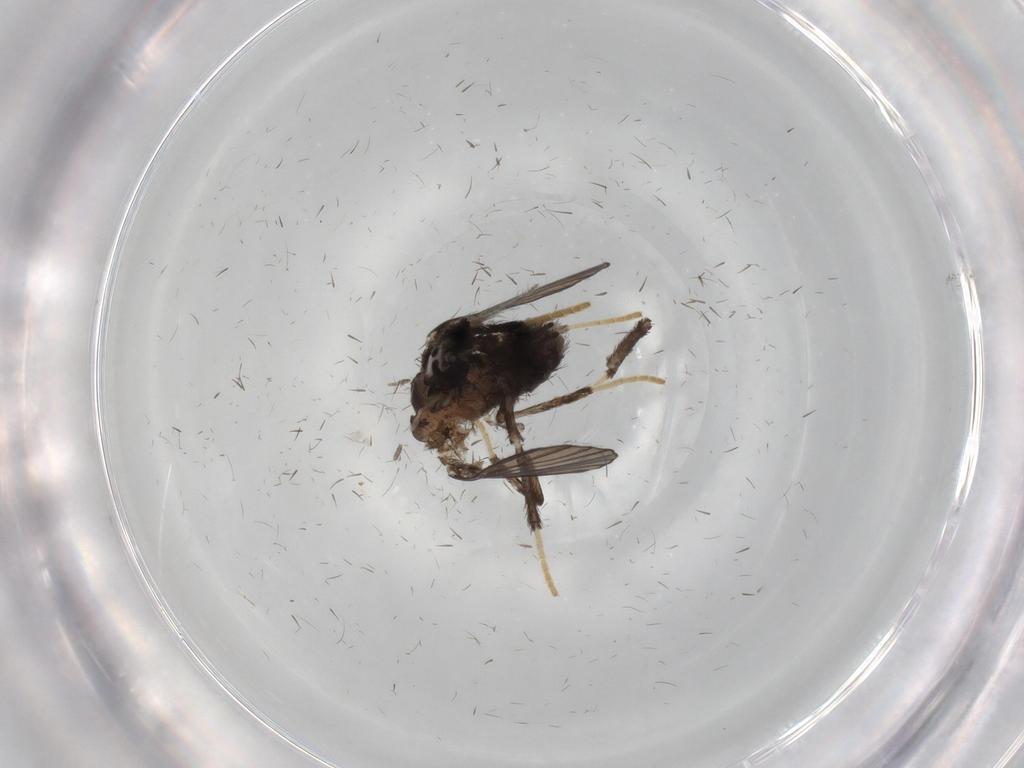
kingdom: Animalia
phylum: Arthropoda
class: Insecta
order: Diptera
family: Psychodidae
